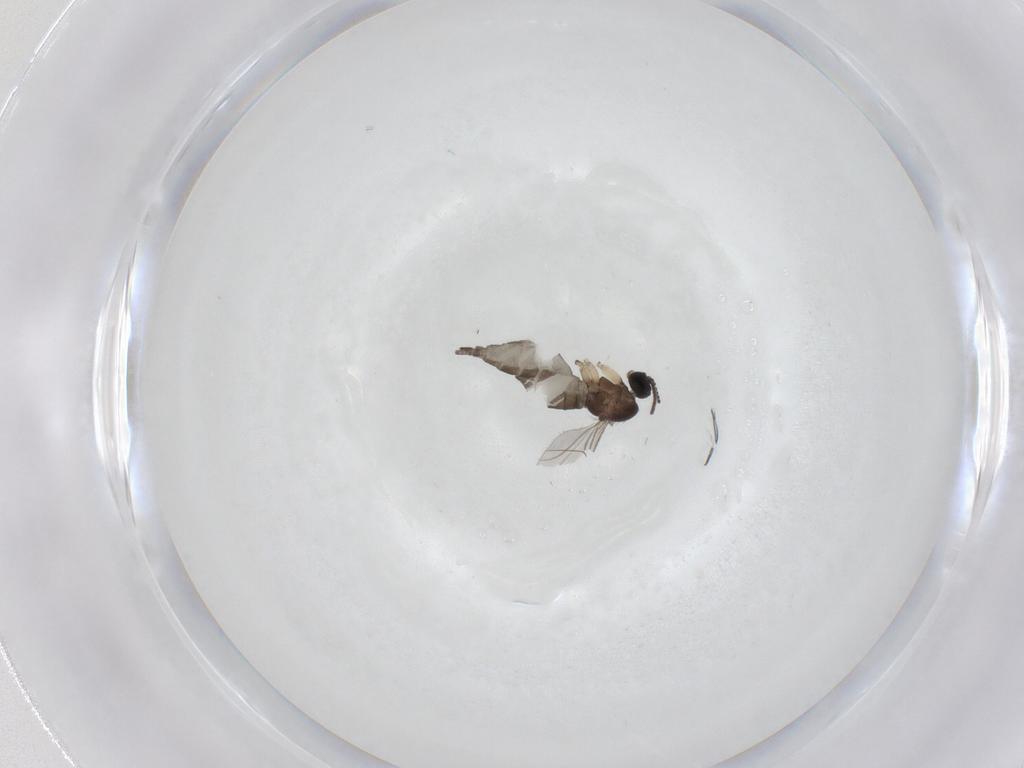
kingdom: Animalia
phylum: Arthropoda
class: Insecta
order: Diptera
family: Sciaridae
